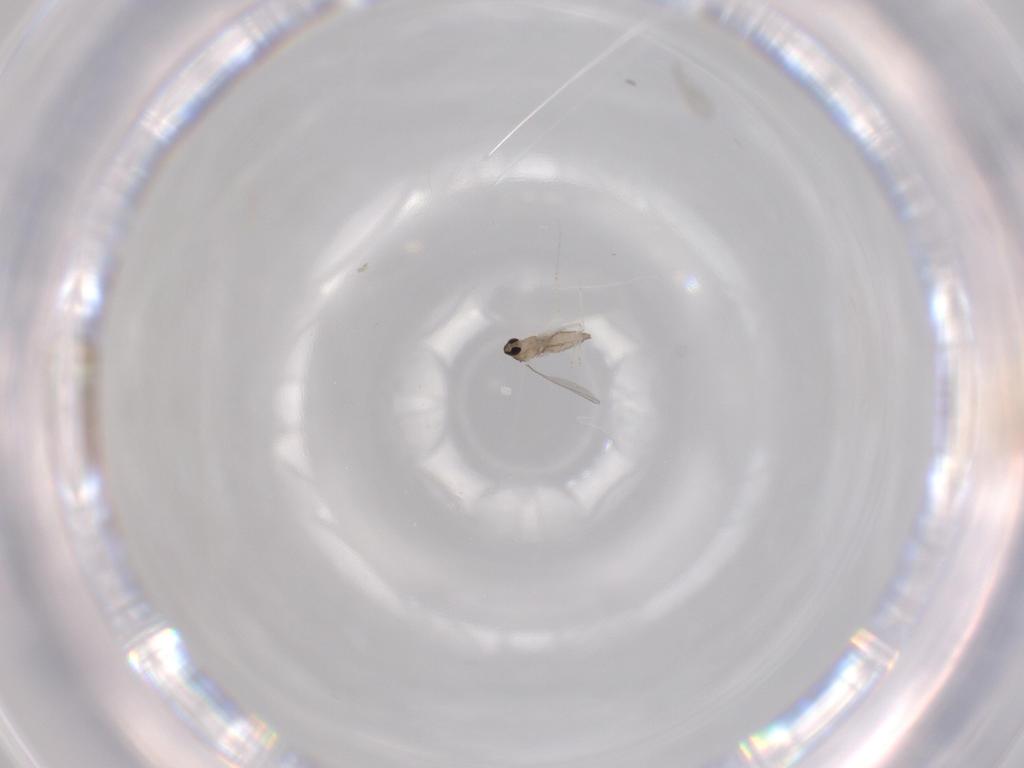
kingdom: Animalia
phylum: Arthropoda
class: Insecta
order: Diptera
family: Cecidomyiidae
